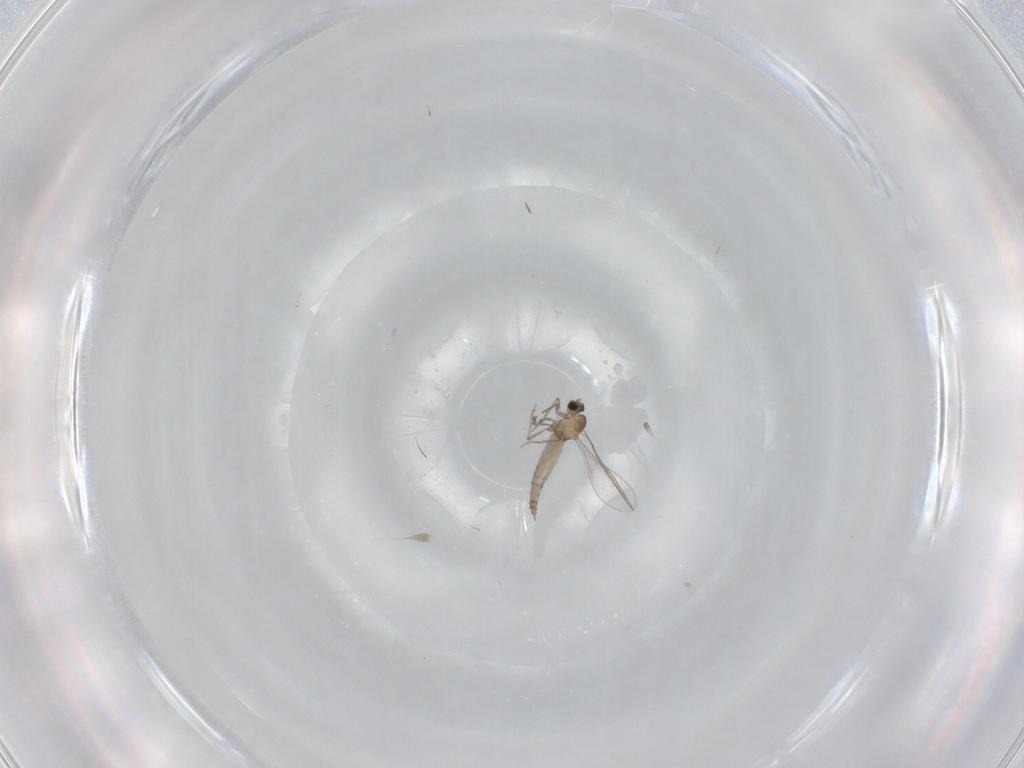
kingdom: Animalia
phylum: Arthropoda
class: Insecta
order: Diptera
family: Cecidomyiidae
